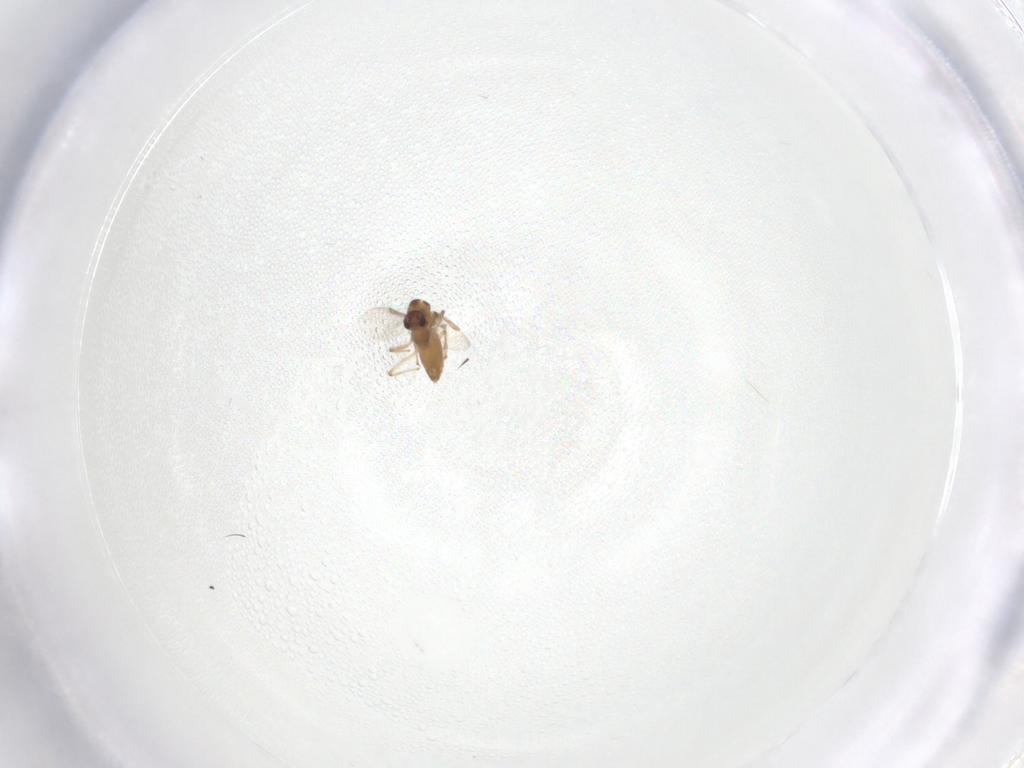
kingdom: Animalia
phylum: Arthropoda
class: Insecta
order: Diptera
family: Chironomidae
